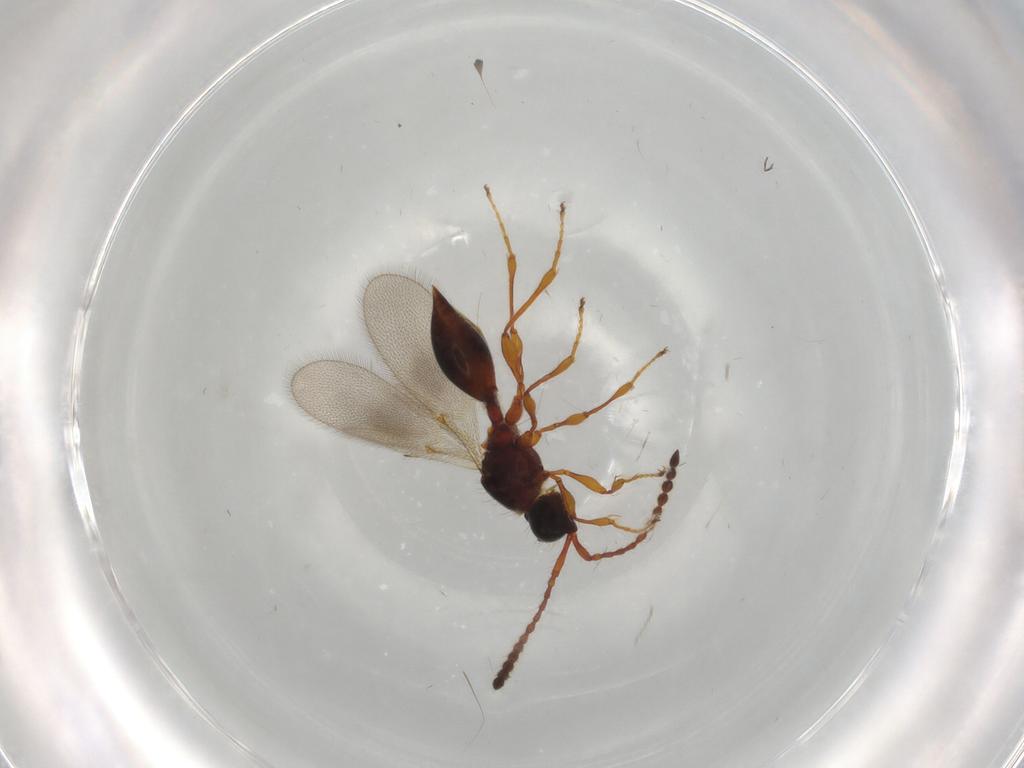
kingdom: Animalia
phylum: Arthropoda
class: Insecta
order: Hymenoptera
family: Diapriidae
